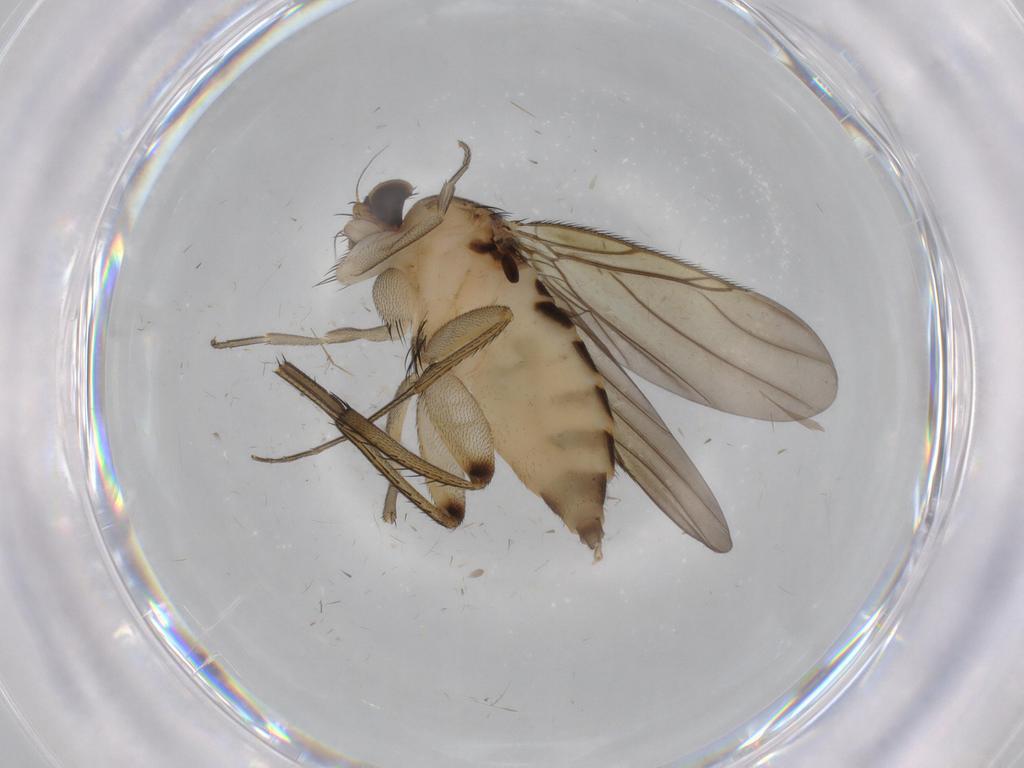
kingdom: Animalia
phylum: Arthropoda
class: Insecta
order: Diptera
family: Phoridae
